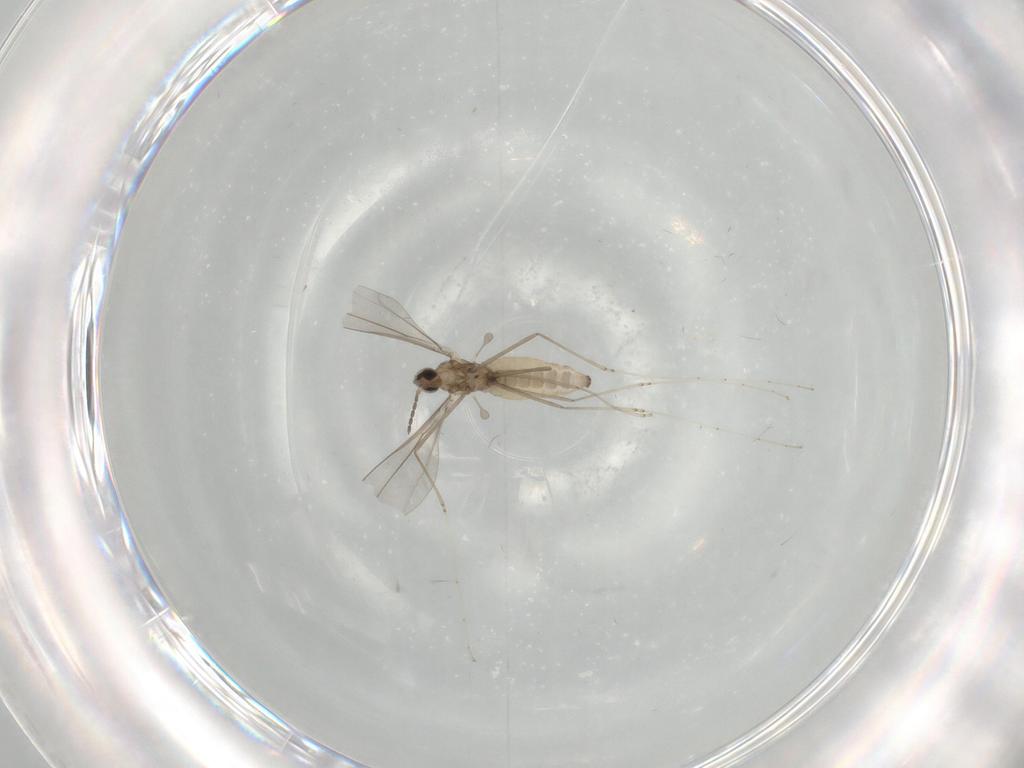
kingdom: Animalia
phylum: Arthropoda
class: Insecta
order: Diptera
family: Cecidomyiidae
